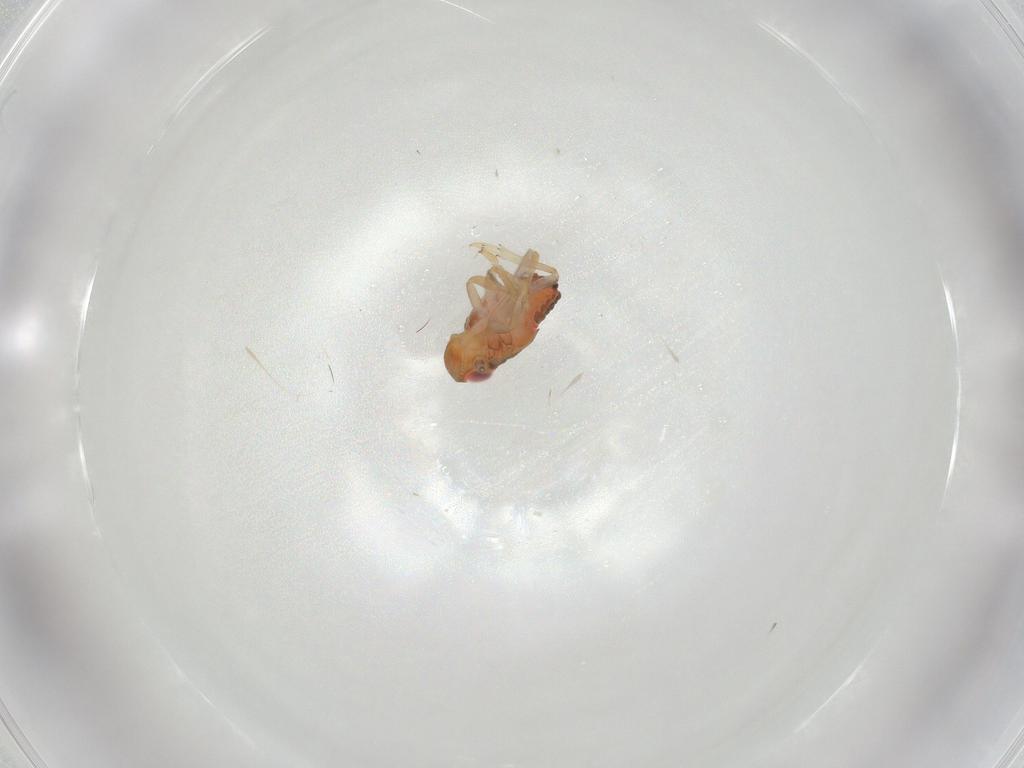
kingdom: Animalia
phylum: Arthropoda
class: Insecta
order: Hemiptera
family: Issidae
